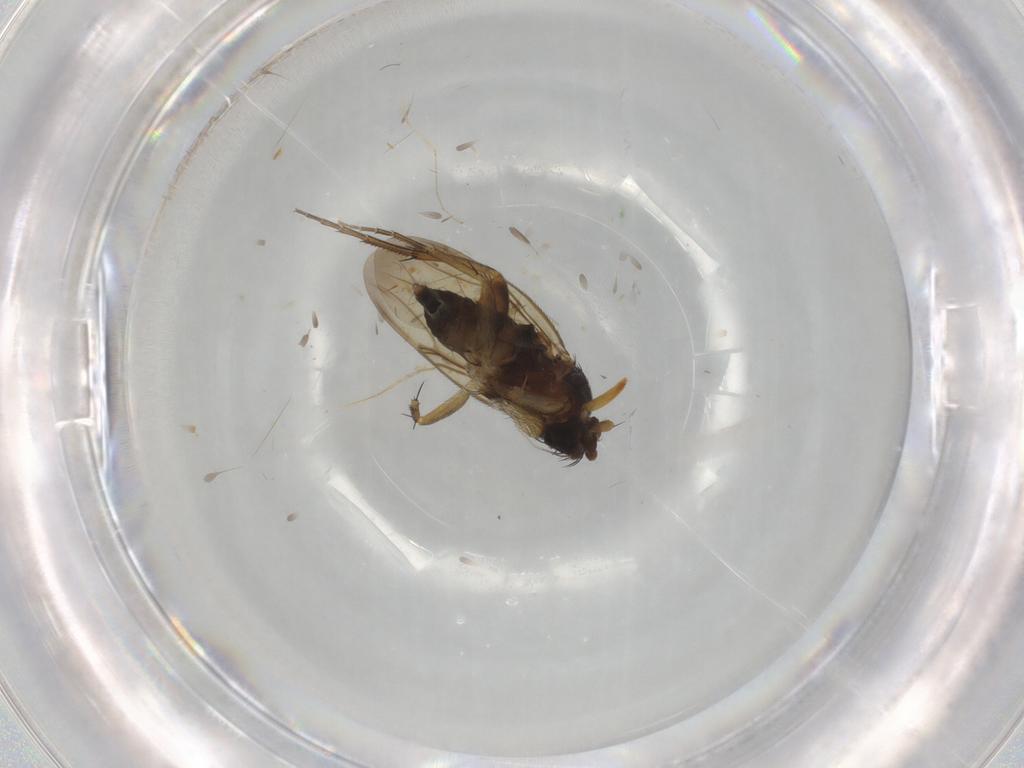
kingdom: Animalia
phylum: Arthropoda
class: Insecta
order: Diptera
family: Phoridae
